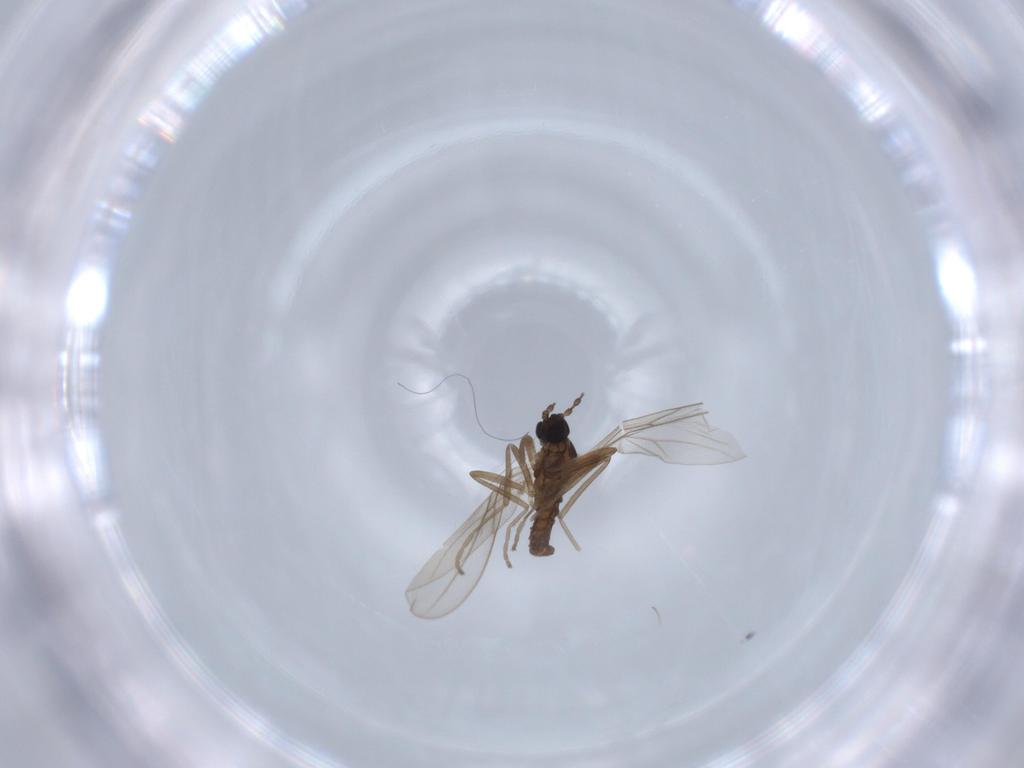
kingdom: Animalia
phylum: Arthropoda
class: Insecta
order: Diptera
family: Cecidomyiidae
